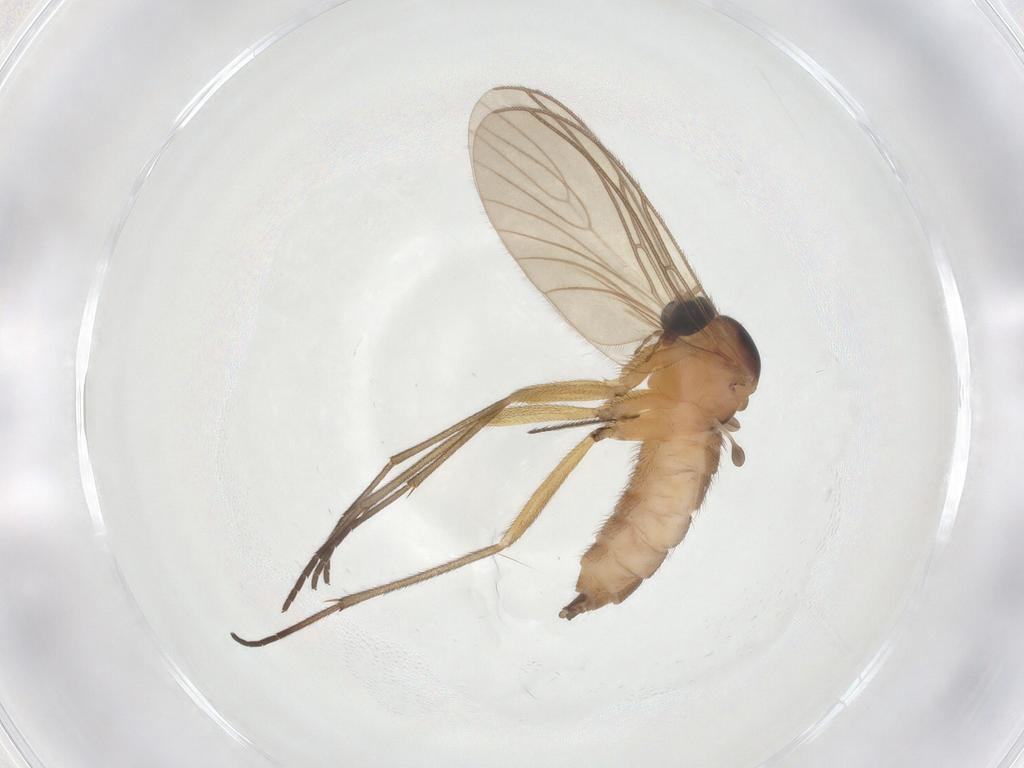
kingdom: Animalia
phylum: Arthropoda
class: Insecta
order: Diptera
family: Sciaridae
